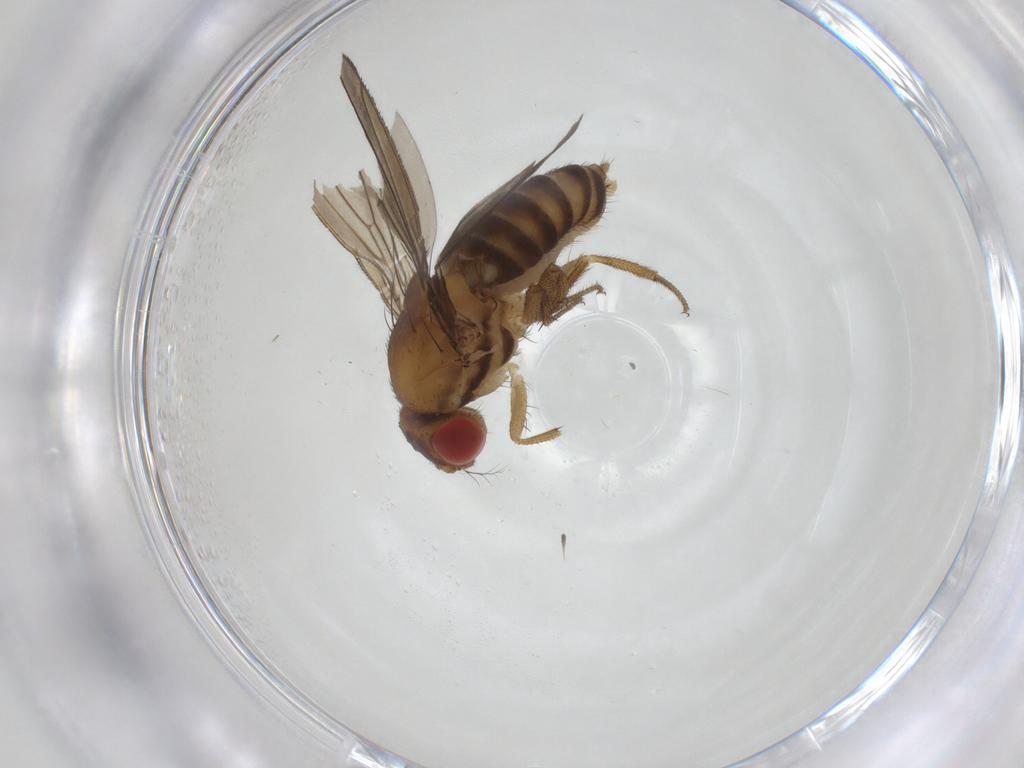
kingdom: Animalia
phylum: Arthropoda
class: Insecta
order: Diptera
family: Drosophilidae
